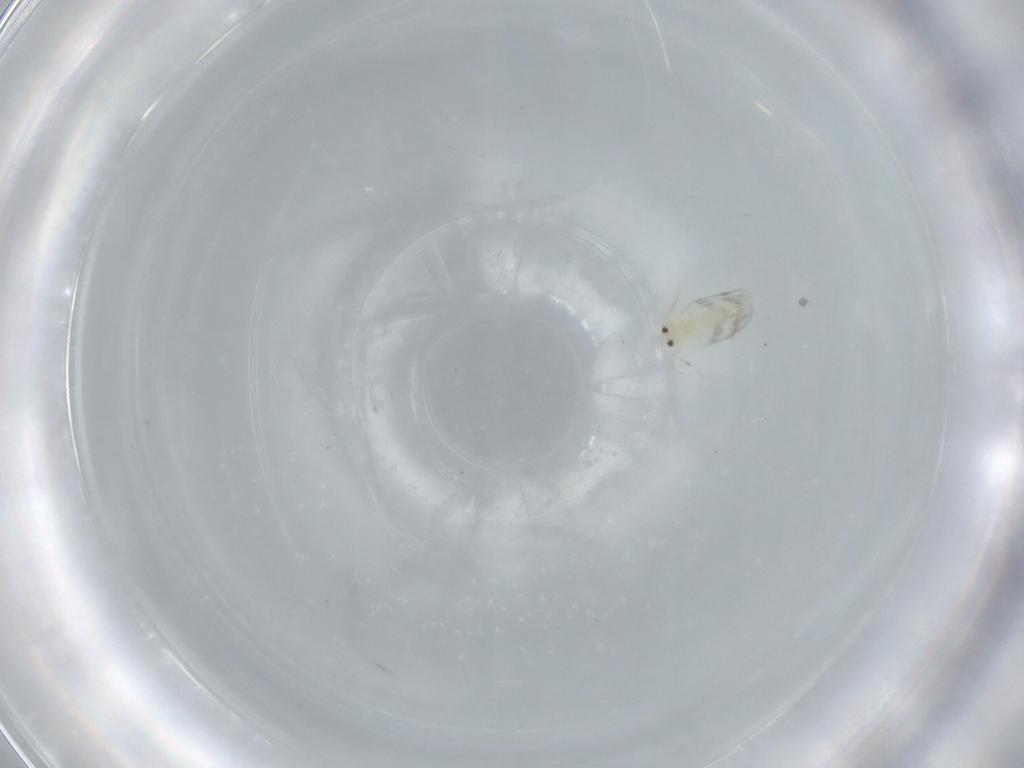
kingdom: Animalia
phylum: Arthropoda
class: Insecta
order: Hemiptera
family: Aleyrodidae
